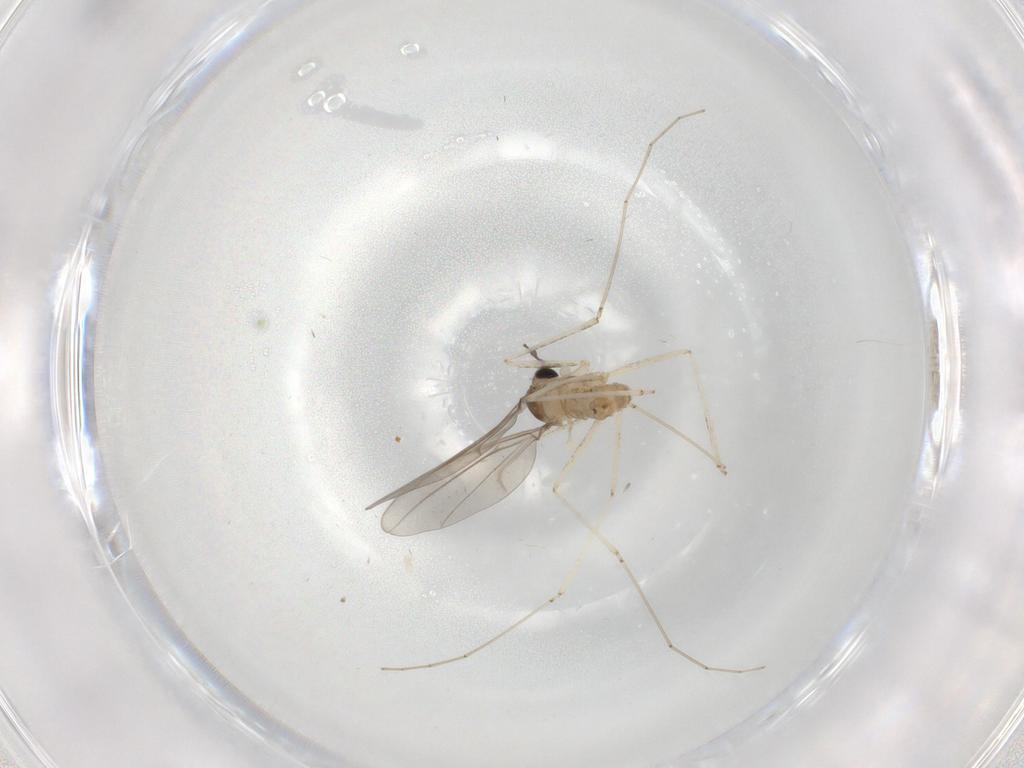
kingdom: Animalia
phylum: Arthropoda
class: Insecta
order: Diptera
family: Cecidomyiidae
